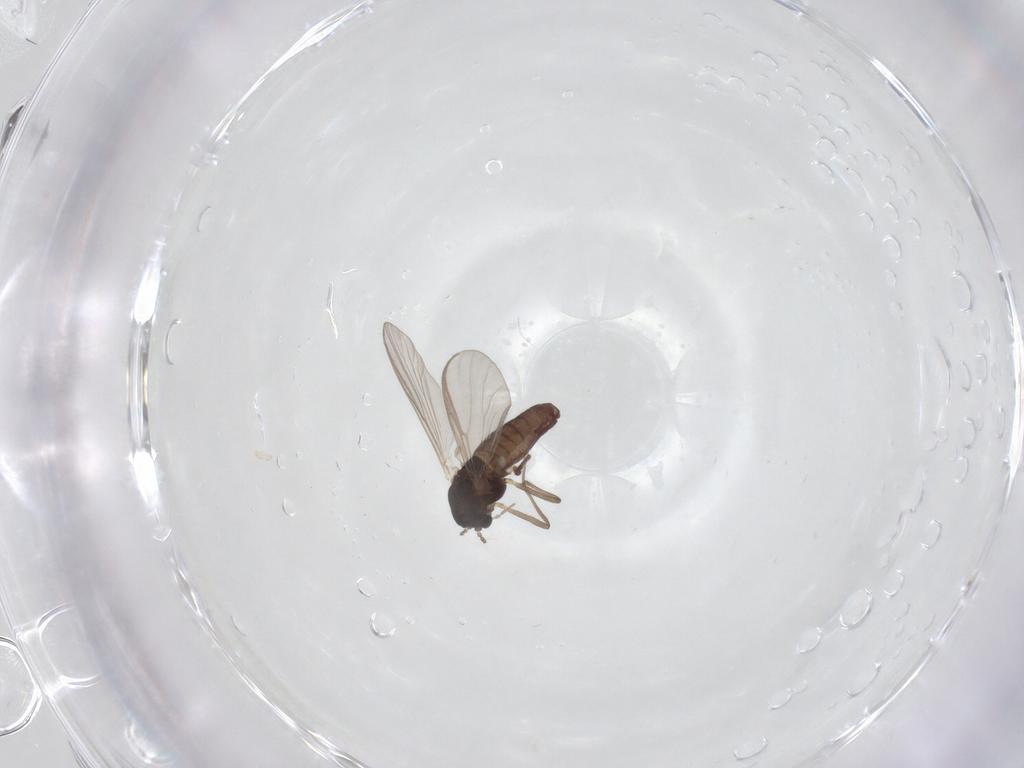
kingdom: Animalia
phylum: Arthropoda
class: Insecta
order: Diptera
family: Chironomidae
